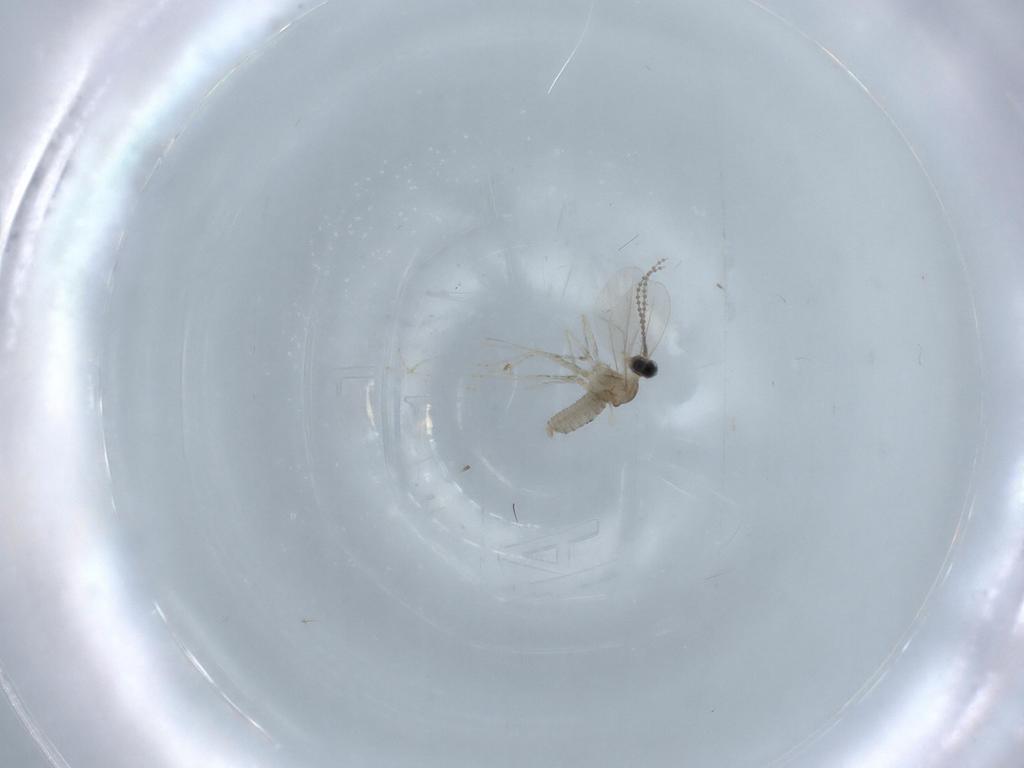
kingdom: Animalia
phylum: Arthropoda
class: Insecta
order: Diptera
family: Chironomidae
